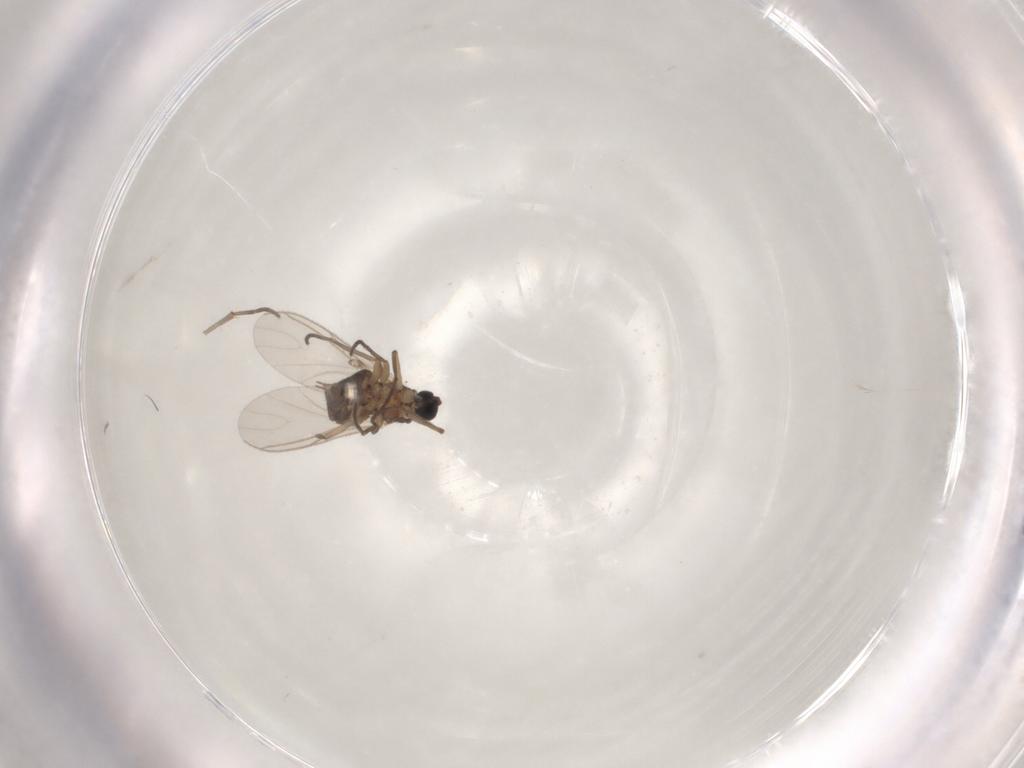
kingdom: Animalia
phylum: Arthropoda
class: Insecta
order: Diptera
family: Sciaridae
